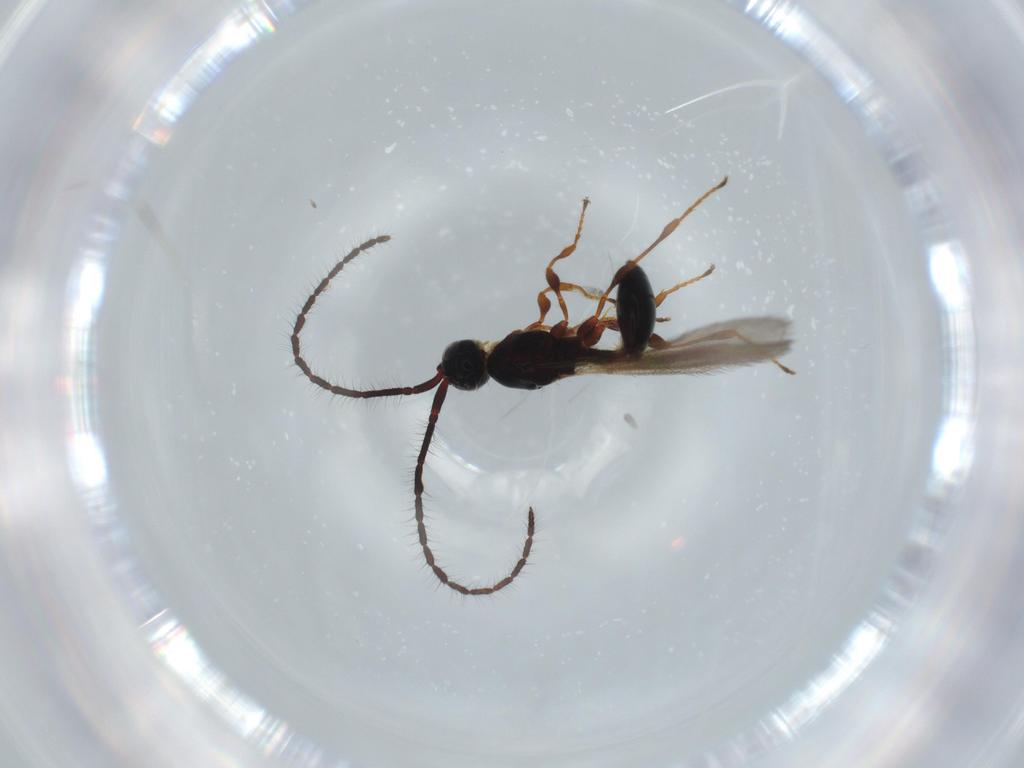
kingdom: Animalia
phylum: Arthropoda
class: Insecta
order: Hymenoptera
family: Diapriidae
